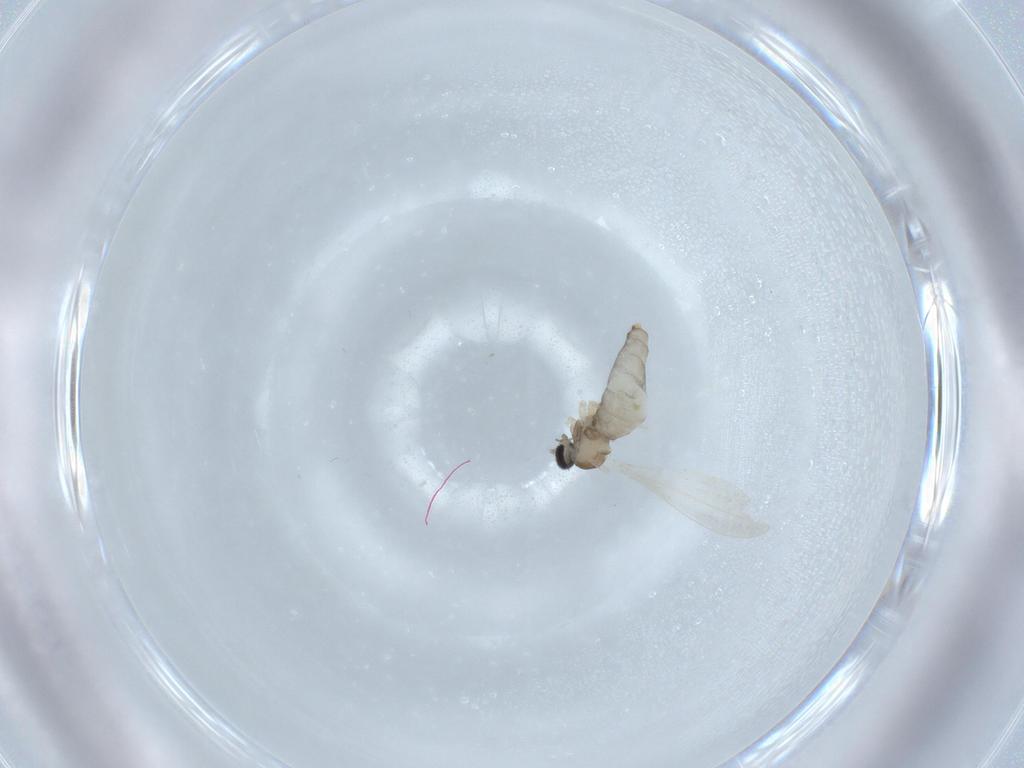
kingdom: Animalia
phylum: Arthropoda
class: Insecta
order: Diptera
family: Cecidomyiidae
